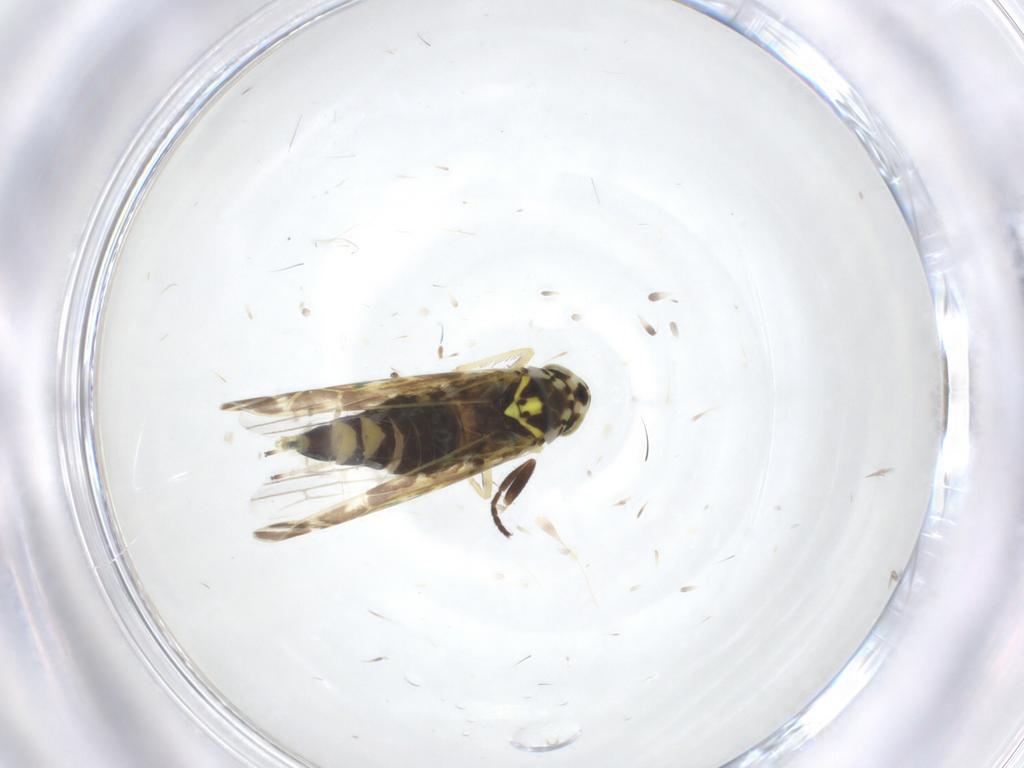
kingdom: Animalia
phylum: Arthropoda
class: Insecta
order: Hemiptera
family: Cicadellidae
